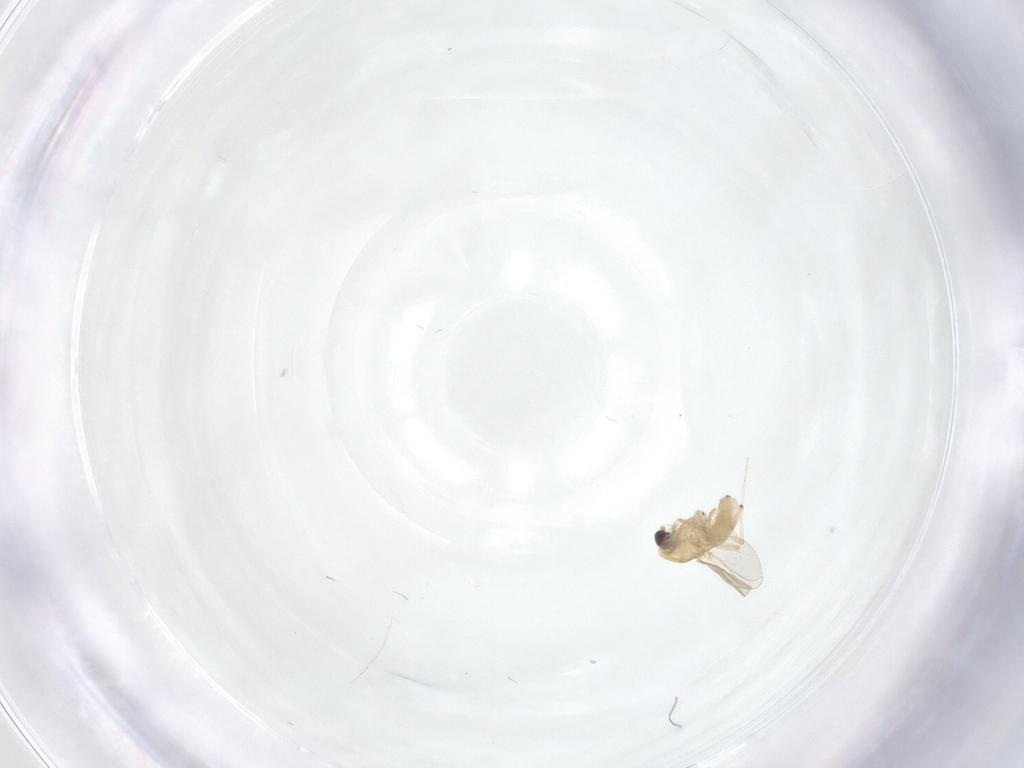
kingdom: Animalia
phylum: Arthropoda
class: Insecta
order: Diptera
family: Chironomidae
